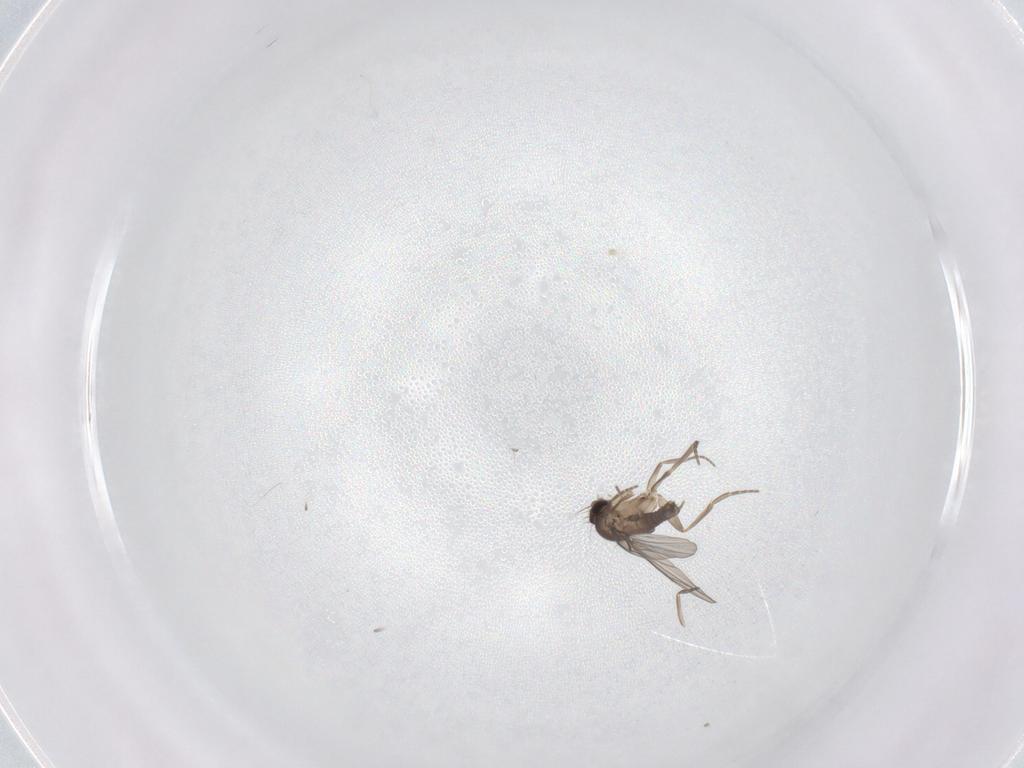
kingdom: Animalia
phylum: Arthropoda
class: Insecta
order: Diptera
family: Phoridae
